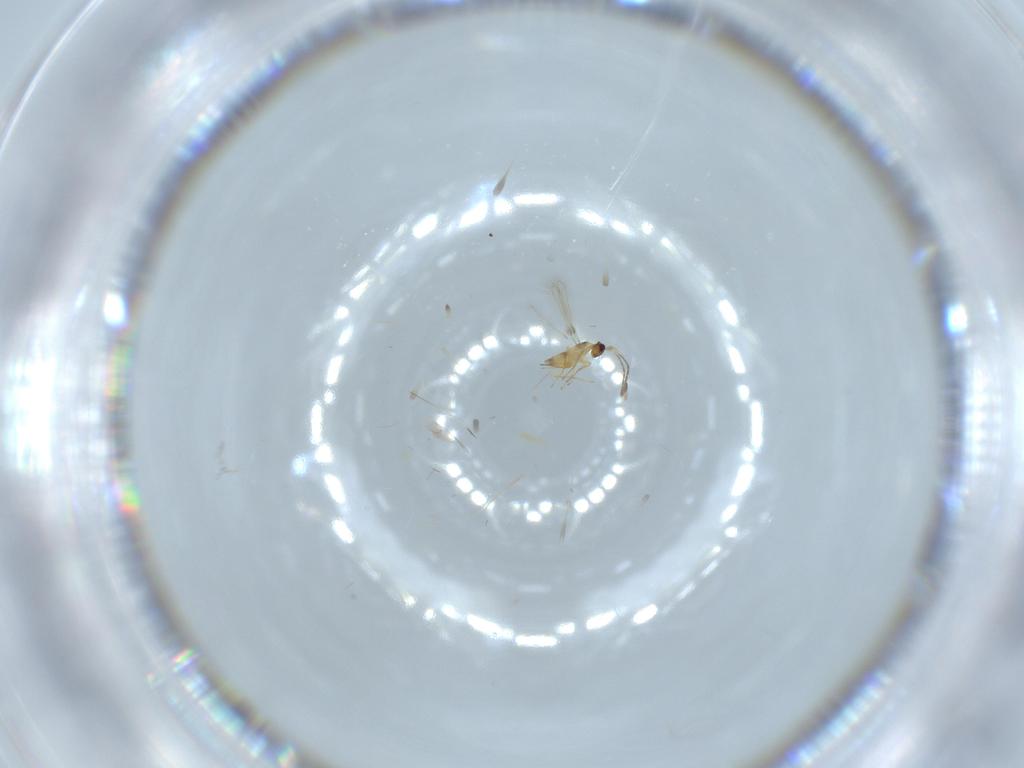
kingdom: Animalia
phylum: Arthropoda
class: Insecta
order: Hymenoptera
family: Mymaridae
